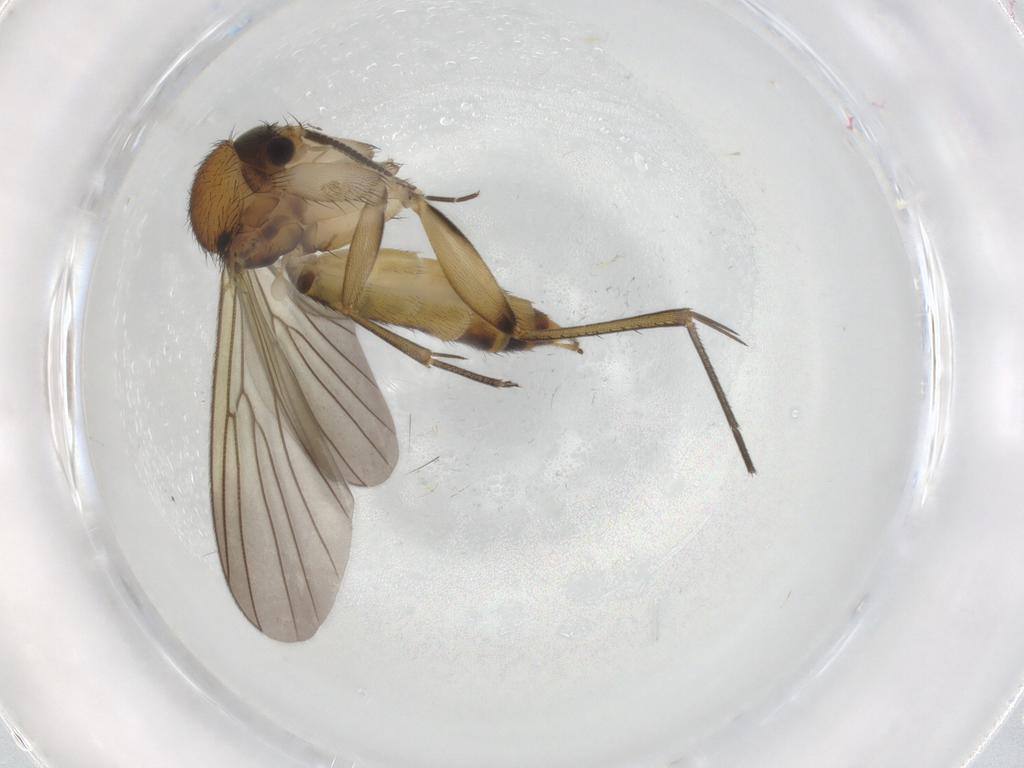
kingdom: Animalia
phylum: Arthropoda
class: Insecta
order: Diptera
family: Mycetophilidae
